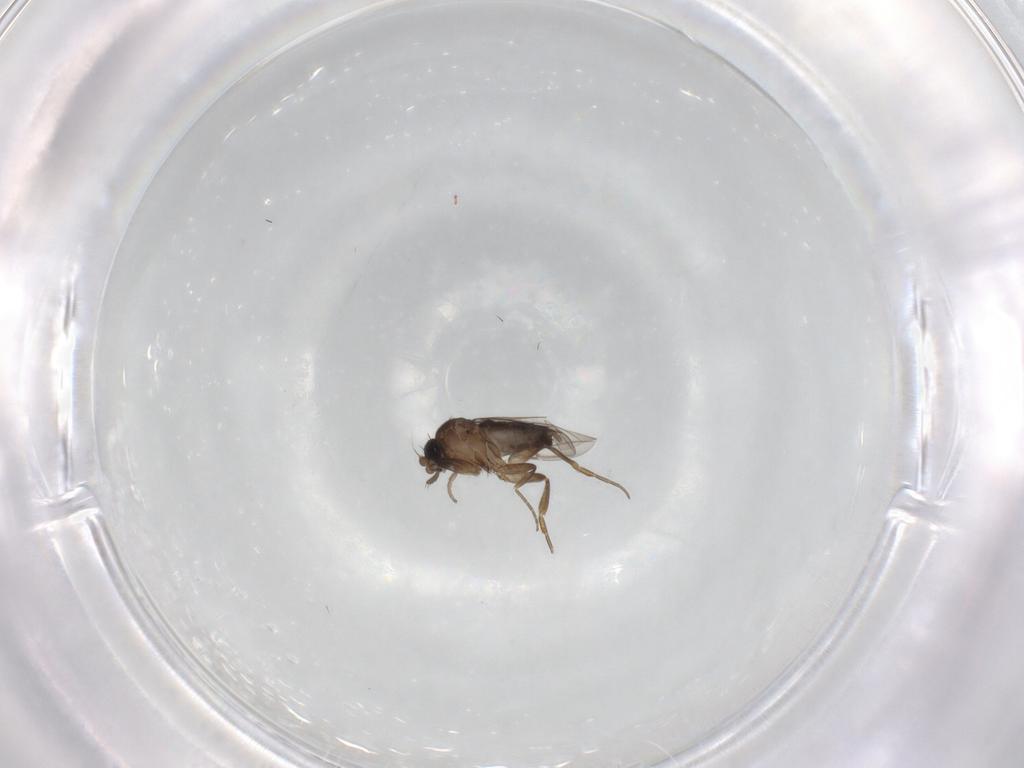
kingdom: Animalia
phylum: Arthropoda
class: Insecta
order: Diptera
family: Phoridae
